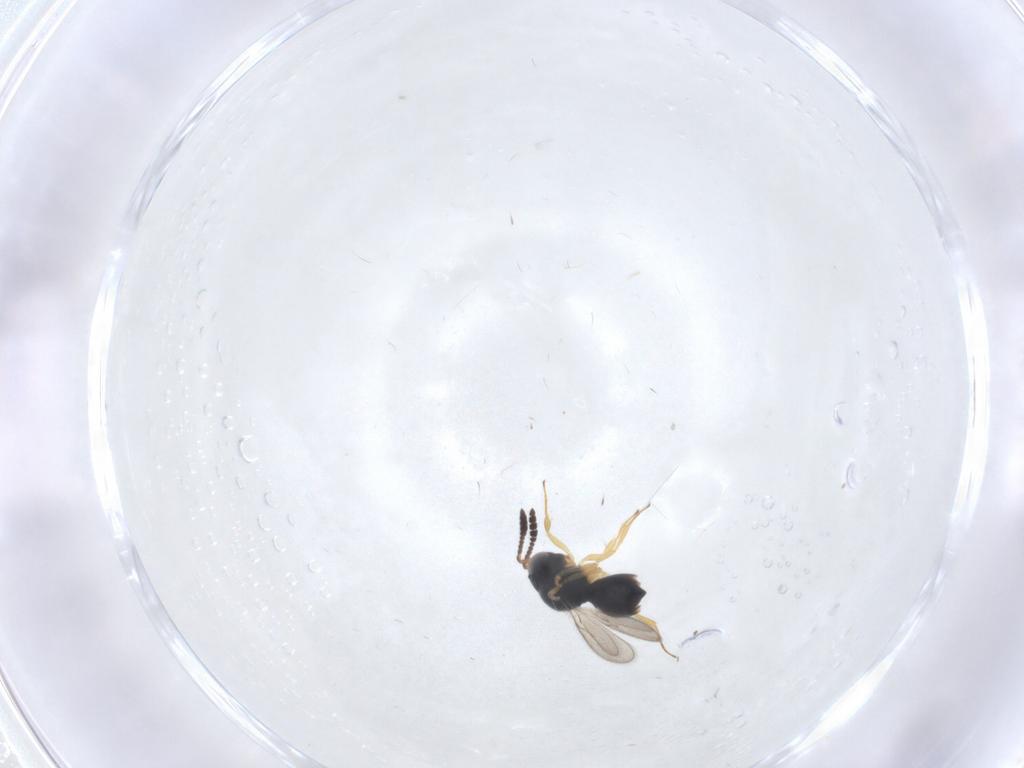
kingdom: Animalia
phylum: Arthropoda
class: Insecta
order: Hymenoptera
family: Scelionidae
